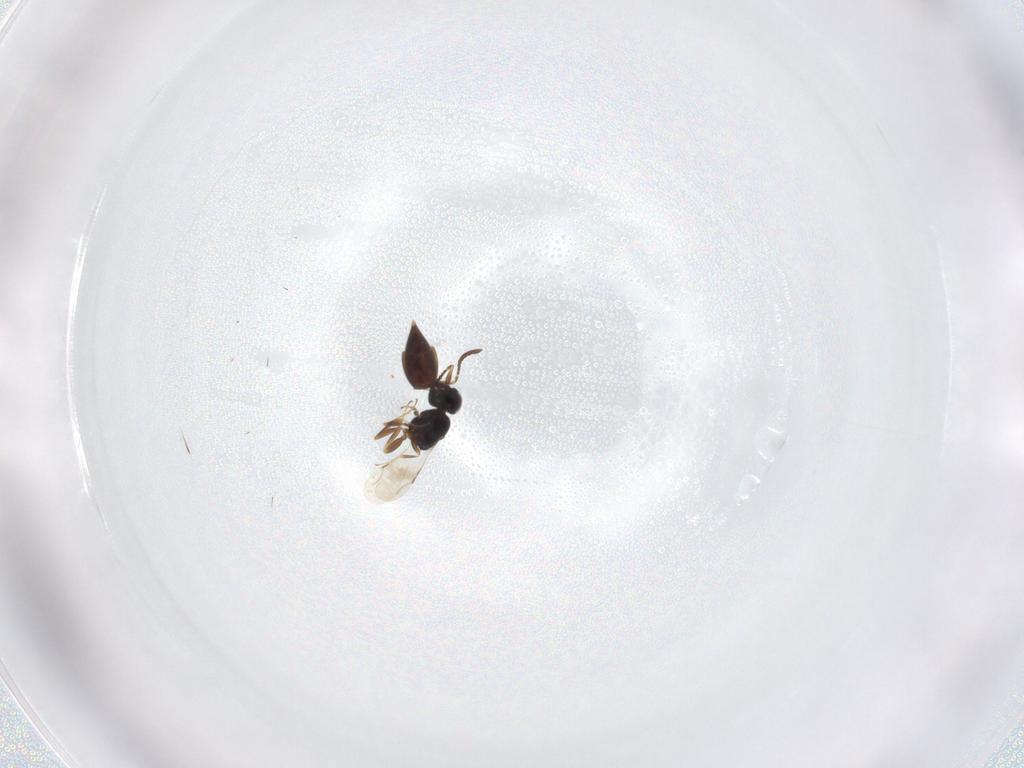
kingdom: Animalia
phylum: Arthropoda
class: Insecta
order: Hymenoptera
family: Ceraphronidae
